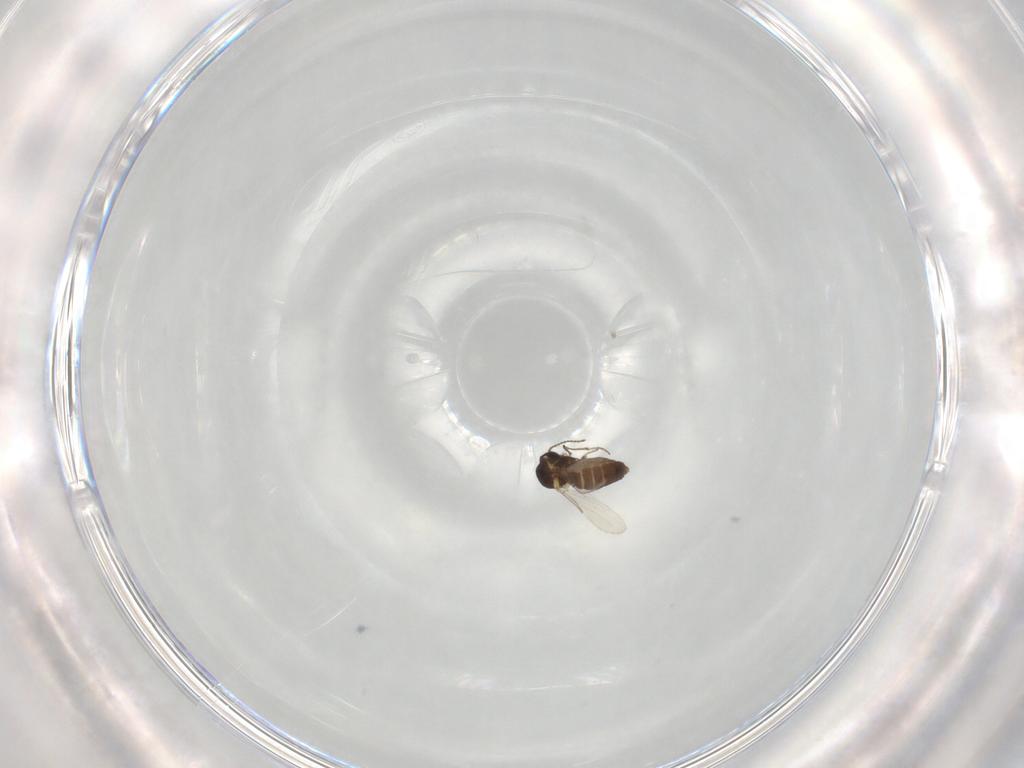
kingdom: Animalia
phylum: Arthropoda
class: Insecta
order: Diptera
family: Ceratopogonidae
